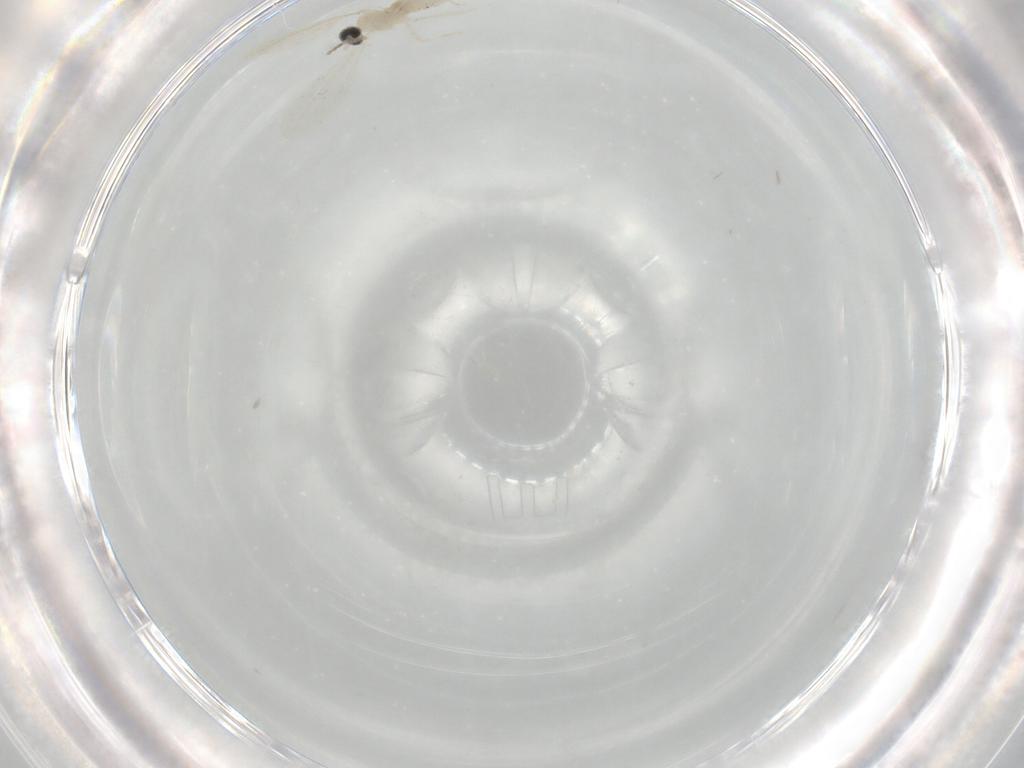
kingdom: Animalia
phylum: Arthropoda
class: Insecta
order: Diptera
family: Cecidomyiidae
